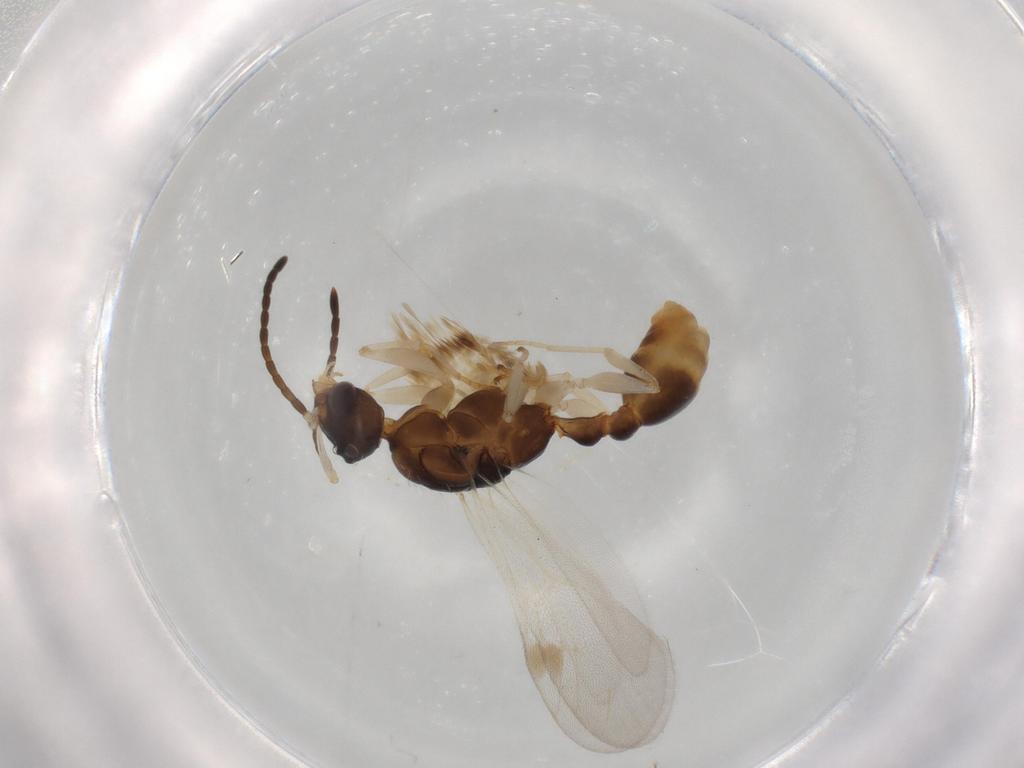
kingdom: Animalia
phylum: Arthropoda
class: Insecta
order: Hymenoptera
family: Formicidae
